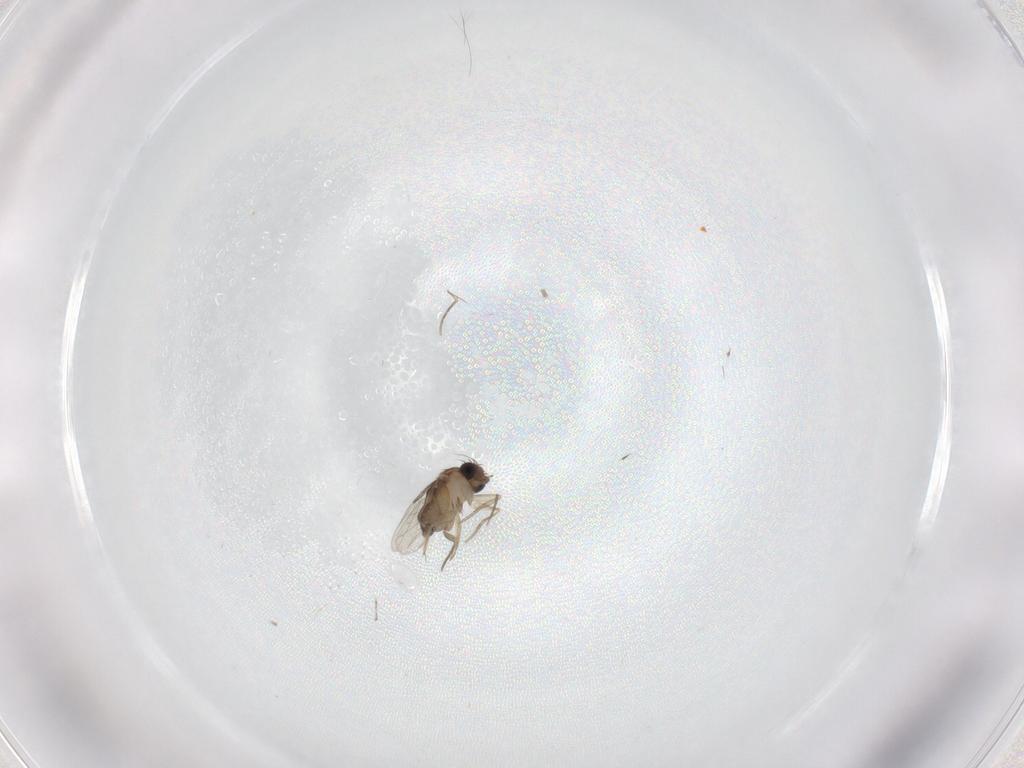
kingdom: Animalia
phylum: Arthropoda
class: Insecta
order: Diptera
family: Phoridae
